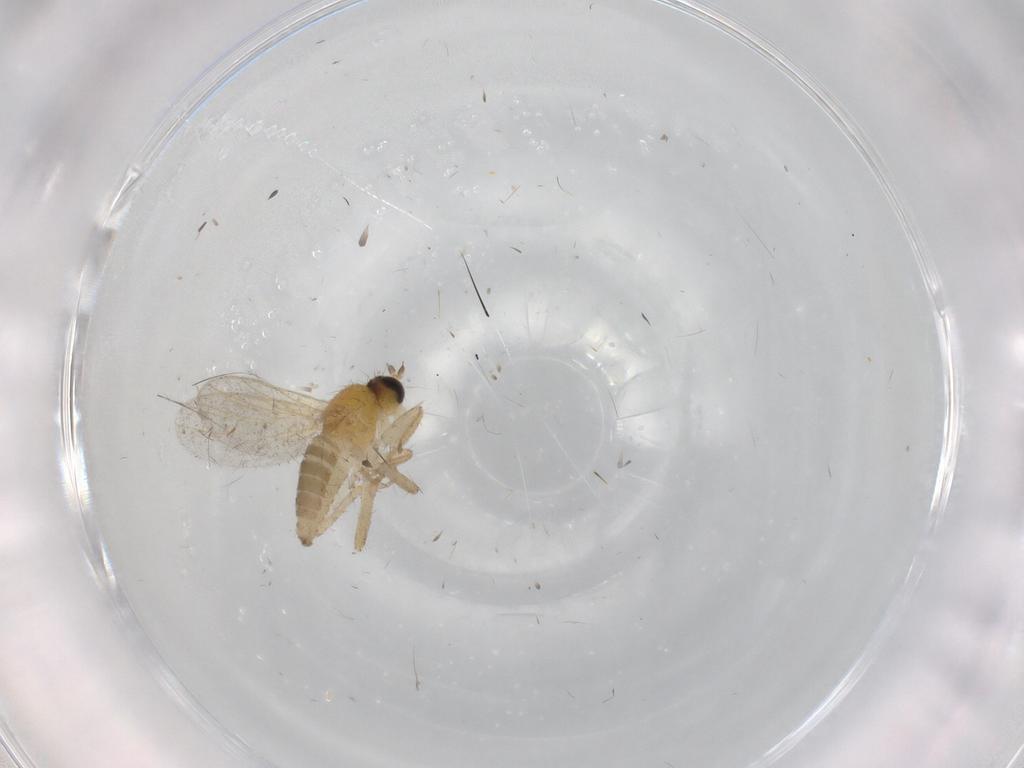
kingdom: Animalia
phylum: Arthropoda
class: Insecta
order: Diptera
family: Hybotidae
